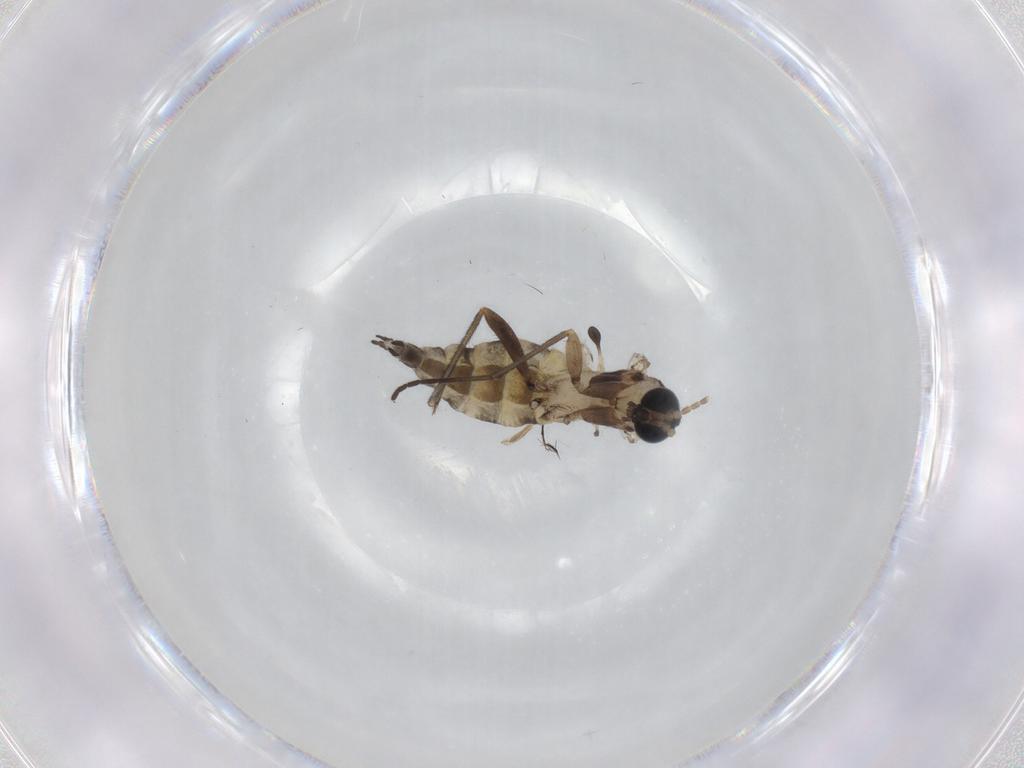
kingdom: Animalia
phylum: Arthropoda
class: Insecta
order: Diptera
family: Sciaridae
